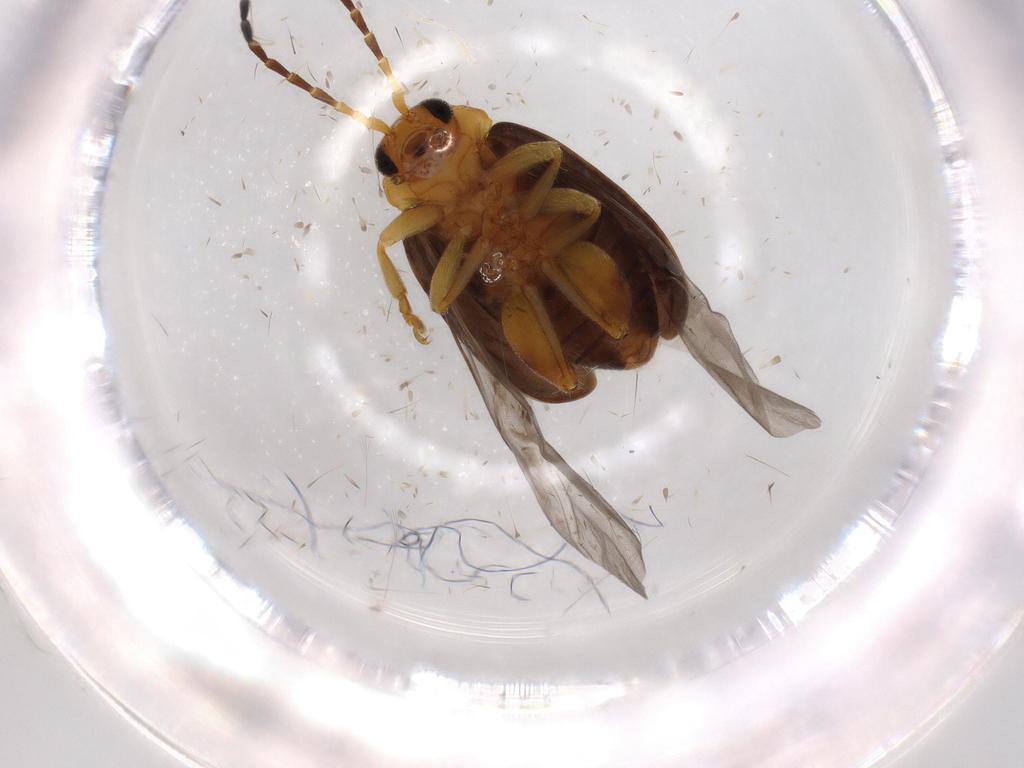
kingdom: Animalia
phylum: Arthropoda
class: Insecta
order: Coleoptera
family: Chrysomelidae
